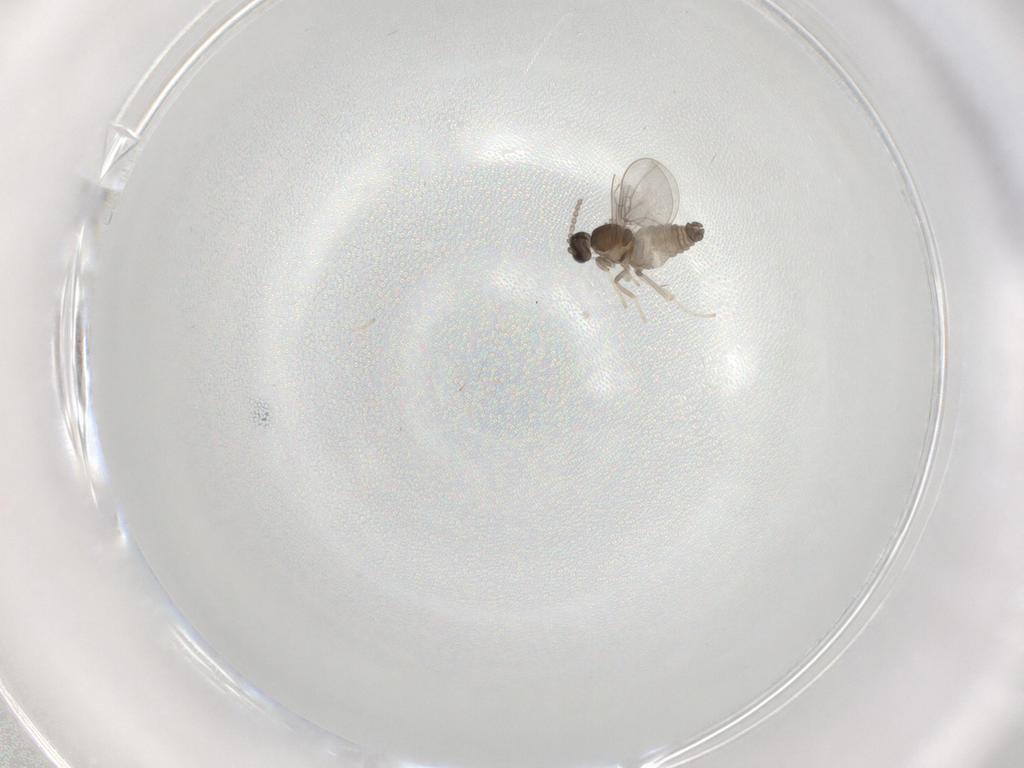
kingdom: Animalia
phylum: Arthropoda
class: Insecta
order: Diptera
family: Cecidomyiidae
